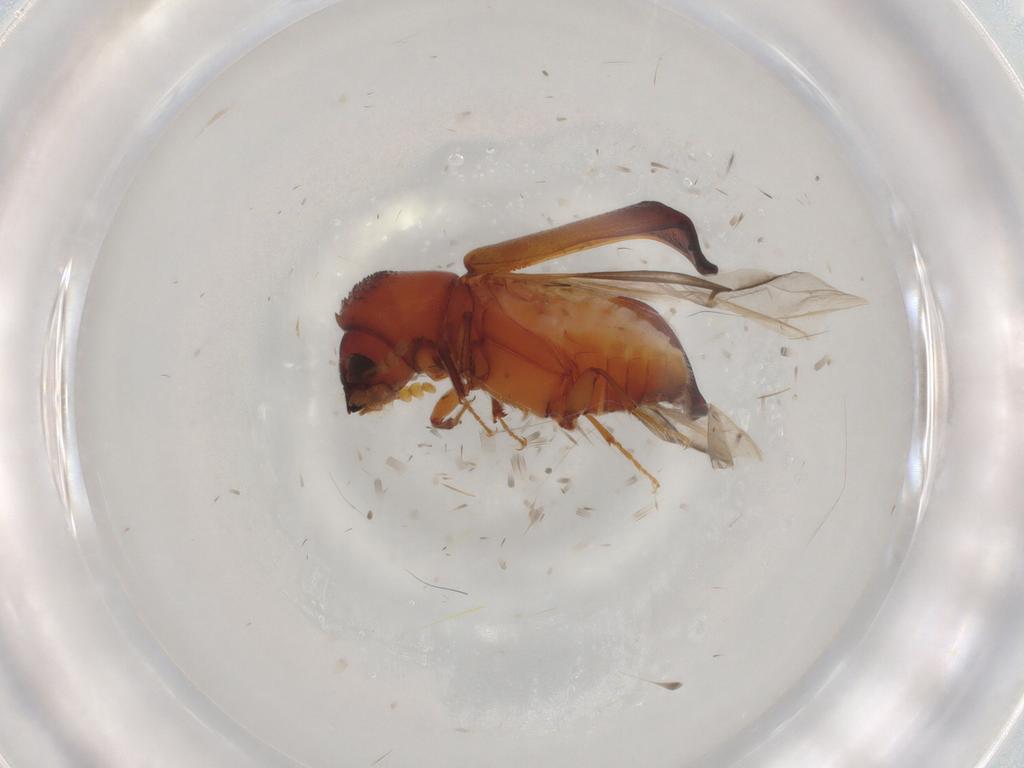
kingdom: Animalia
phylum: Arthropoda
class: Insecta
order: Coleoptera
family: Bostrichidae
